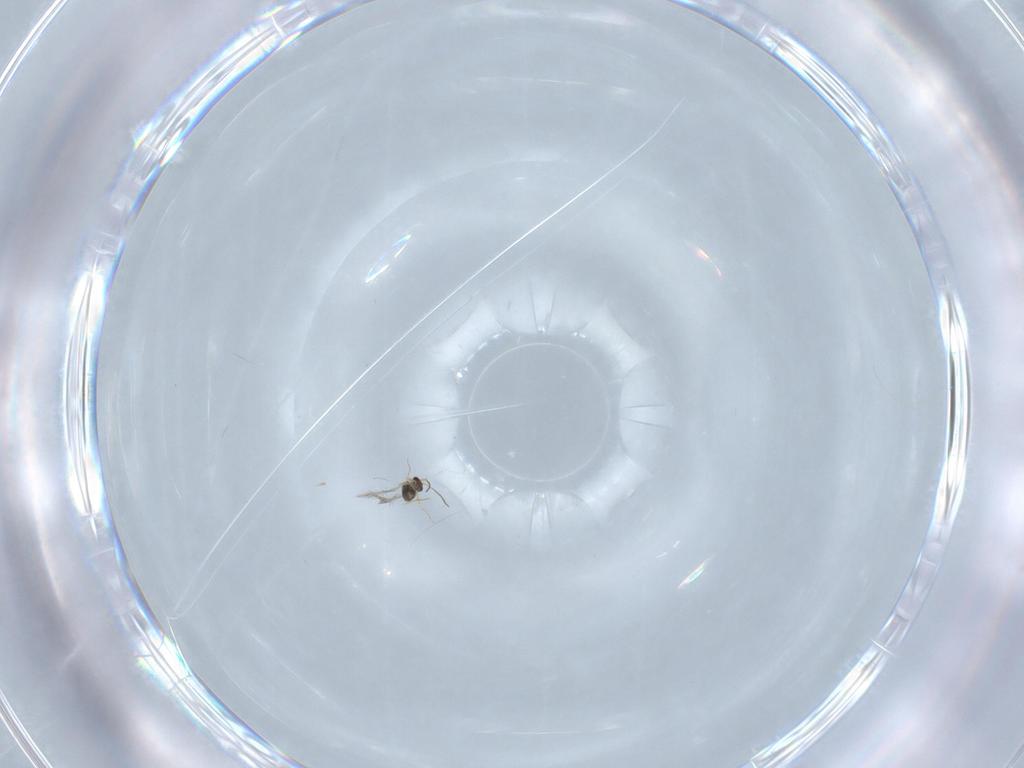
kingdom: Animalia
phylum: Arthropoda
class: Insecta
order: Hymenoptera
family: Mymaridae
